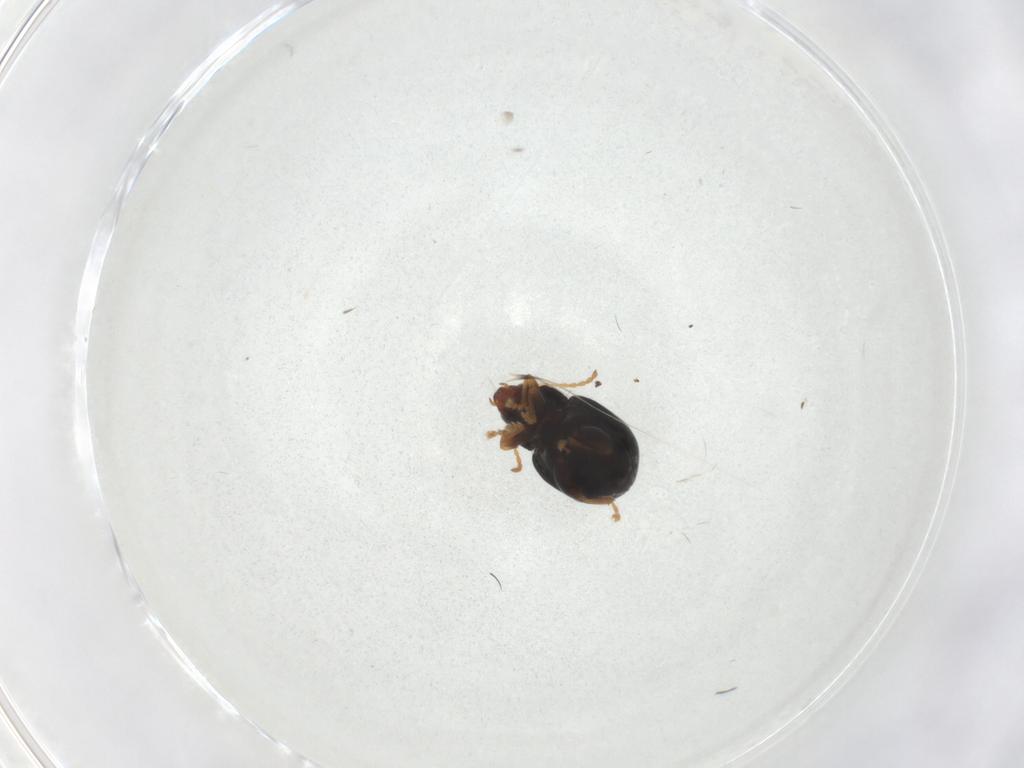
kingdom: Animalia
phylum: Arthropoda
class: Insecta
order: Coleoptera
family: Chrysomelidae
